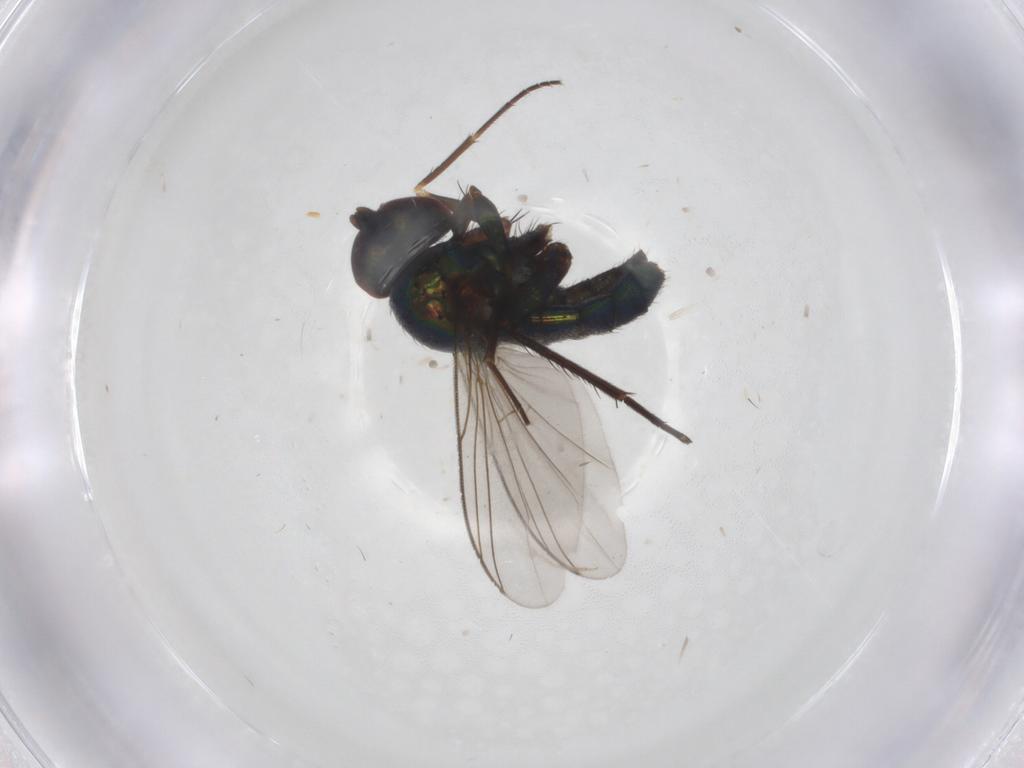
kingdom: Animalia
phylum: Arthropoda
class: Insecta
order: Diptera
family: Dolichopodidae
